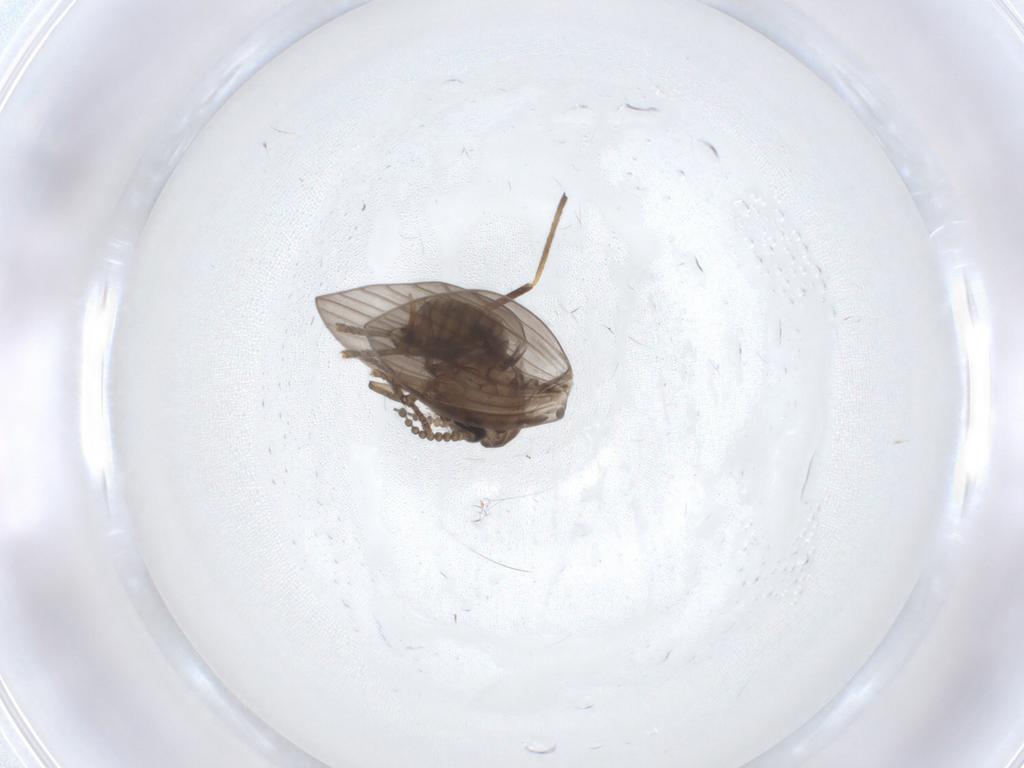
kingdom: Animalia
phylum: Arthropoda
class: Insecta
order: Diptera
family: Psychodidae
